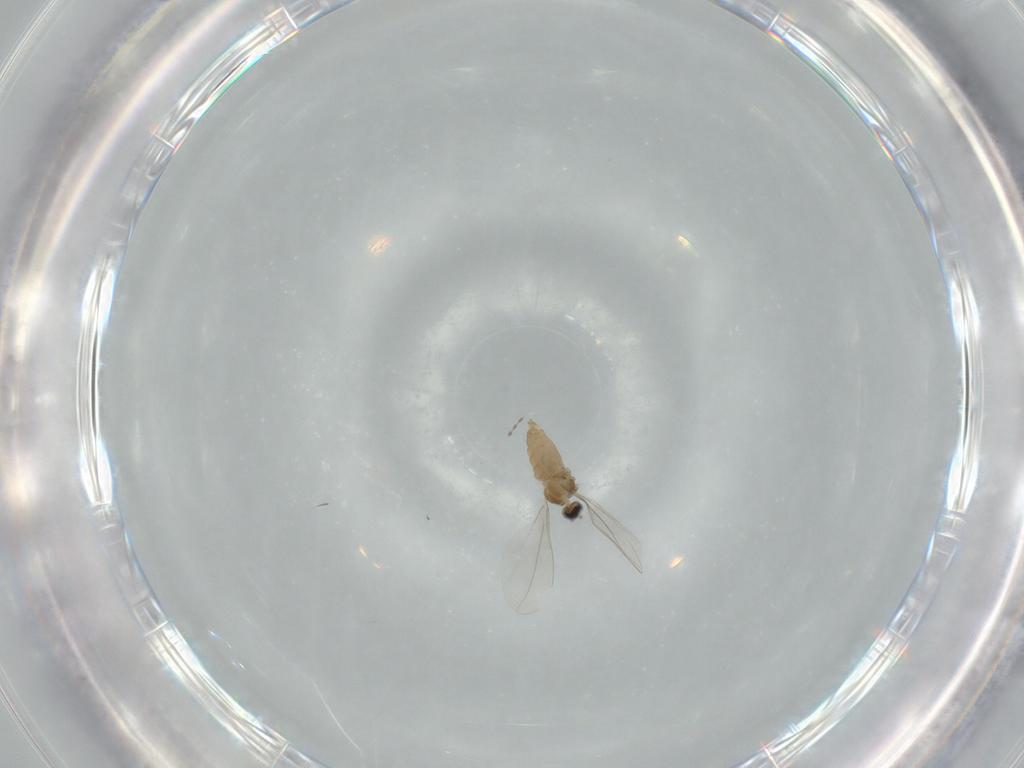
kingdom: Animalia
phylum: Arthropoda
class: Insecta
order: Diptera
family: Cecidomyiidae
